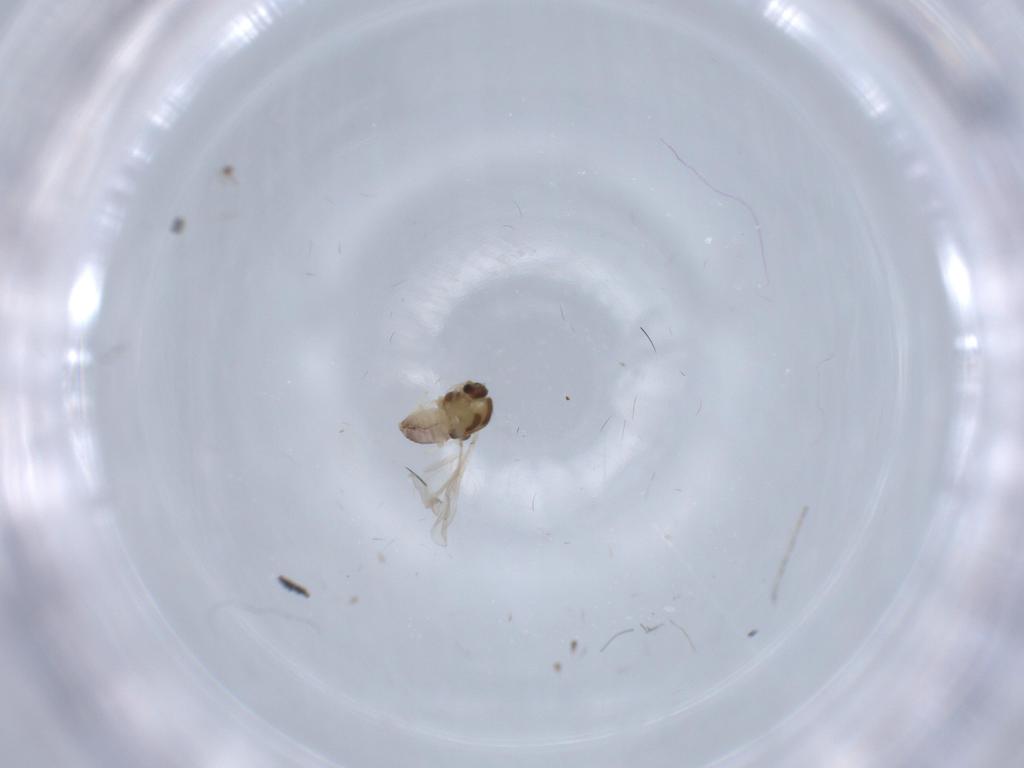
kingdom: Animalia
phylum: Arthropoda
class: Insecta
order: Diptera
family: Chironomidae
